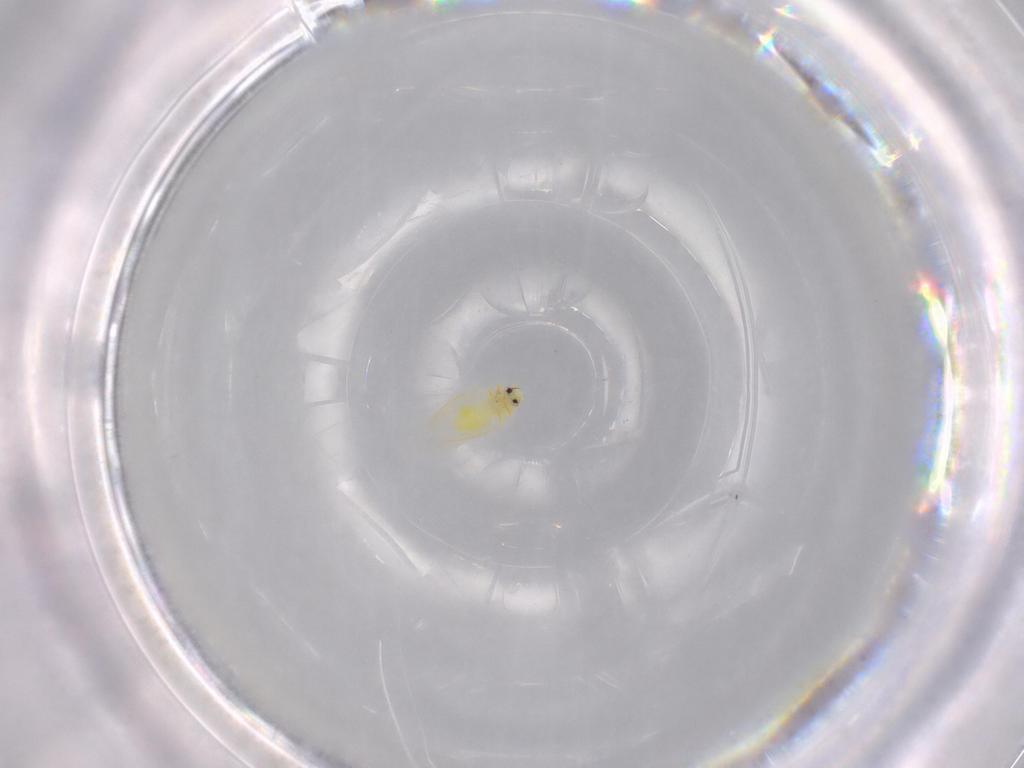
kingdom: Animalia
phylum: Arthropoda
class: Insecta
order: Hemiptera
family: Aleyrodidae
